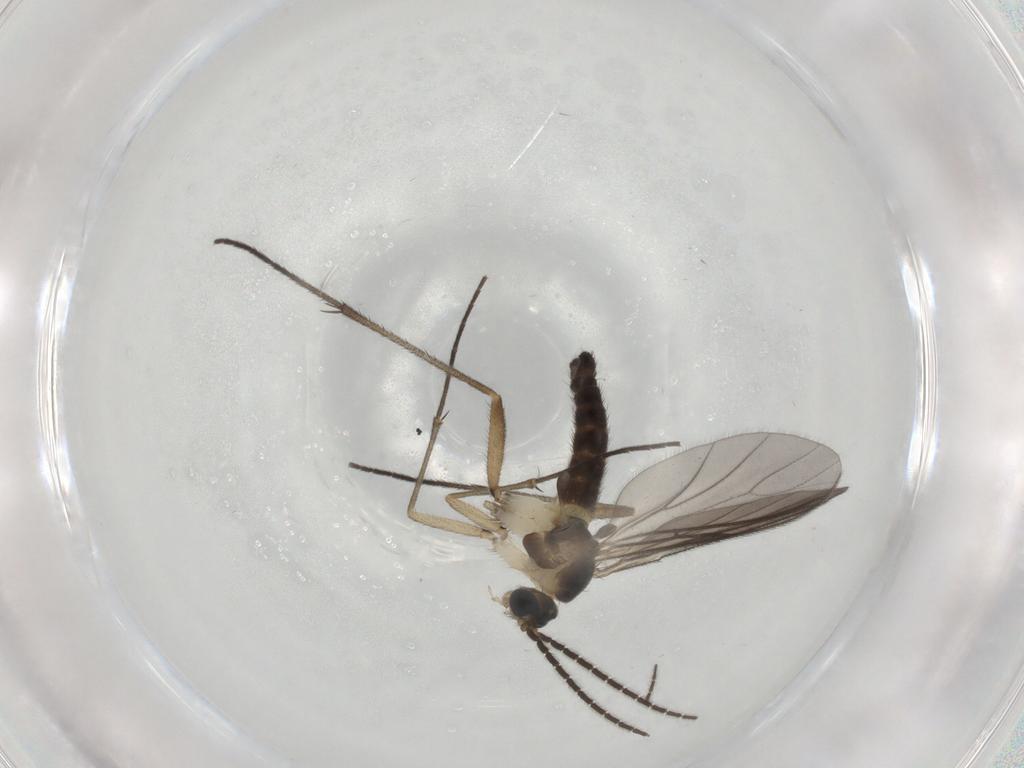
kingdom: Animalia
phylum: Arthropoda
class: Insecta
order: Diptera
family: Sciaridae
